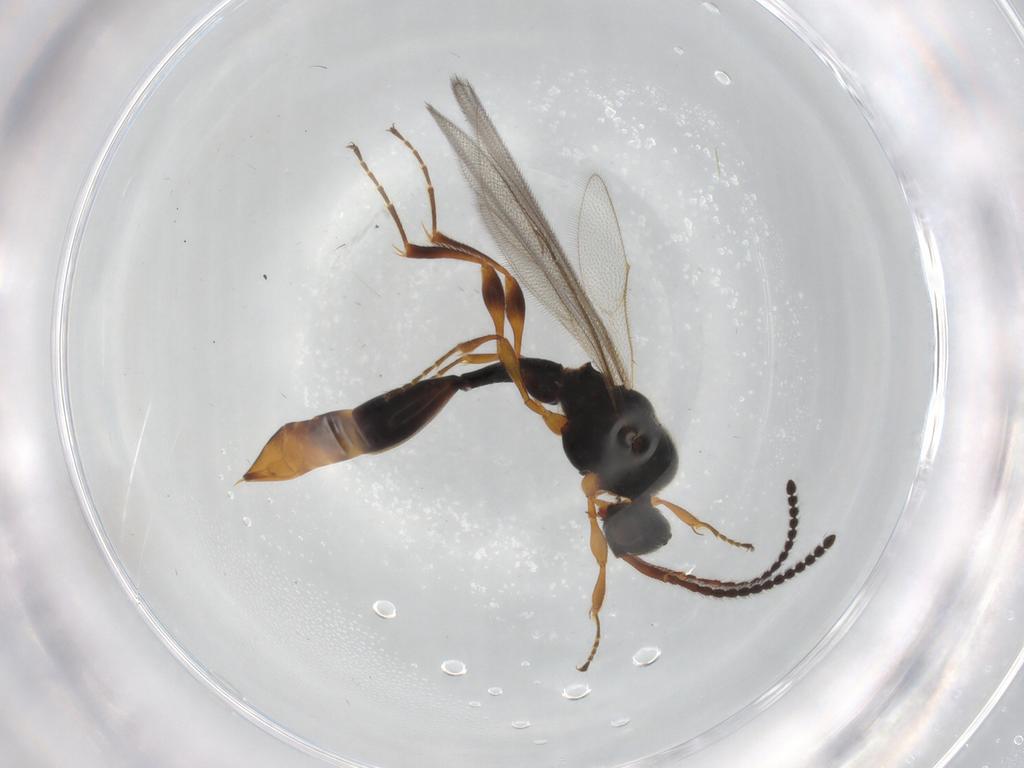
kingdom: Animalia
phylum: Arthropoda
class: Insecta
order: Hymenoptera
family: Diapriidae
